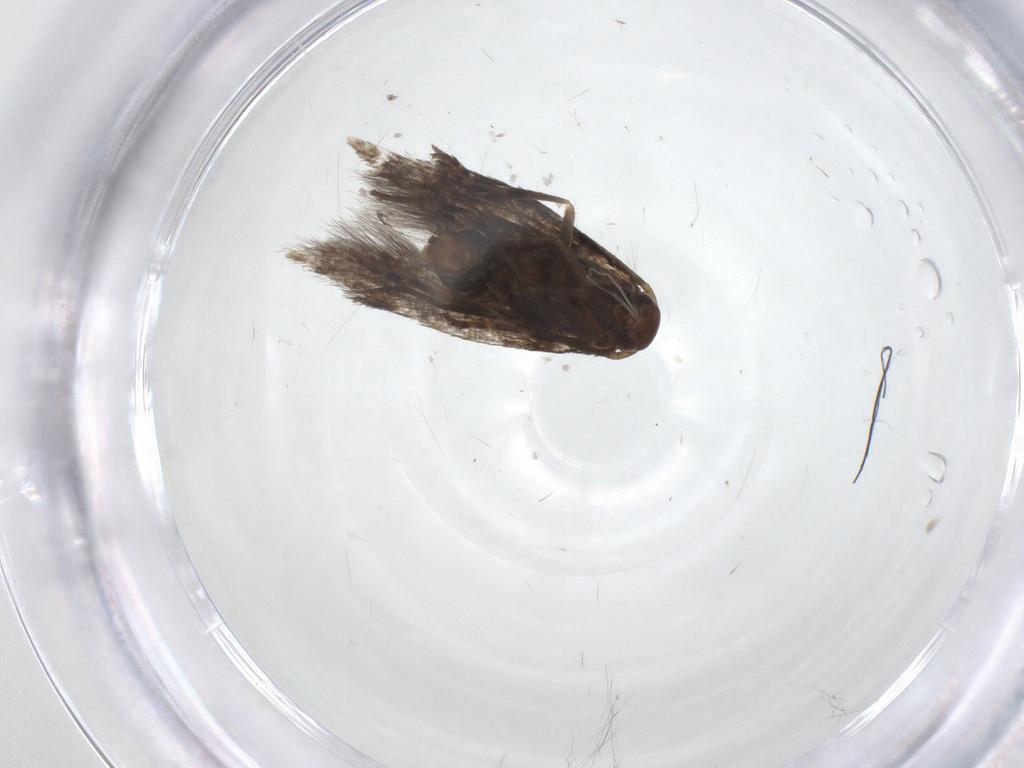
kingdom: Animalia
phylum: Arthropoda
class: Insecta
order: Lepidoptera
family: Elachistidae
